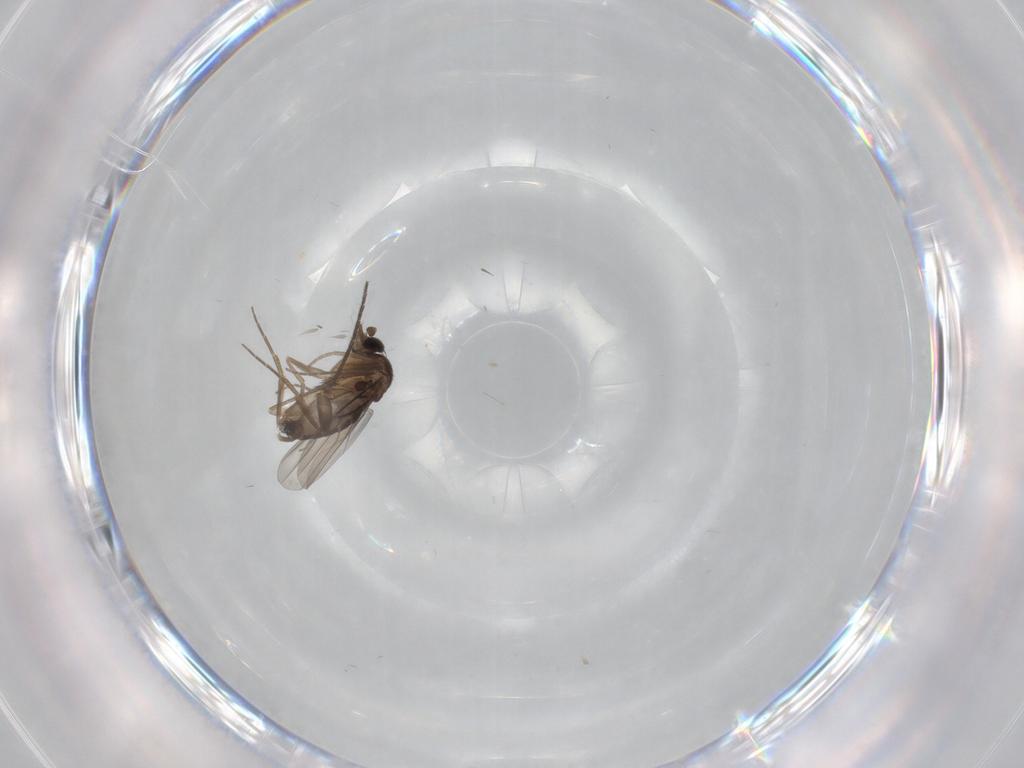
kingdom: Animalia
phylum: Arthropoda
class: Insecta
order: Diptera
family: Phoridae
